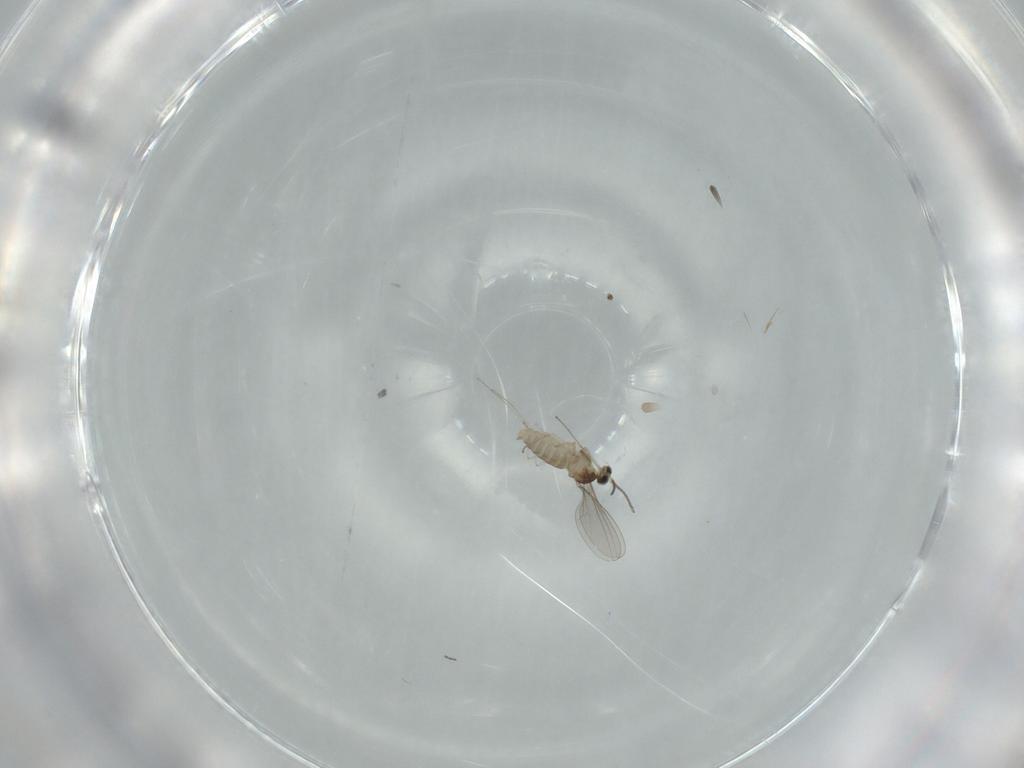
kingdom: Animalia
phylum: Arthropoda
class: Insecta
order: Diptera
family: Cecidomyiidae
